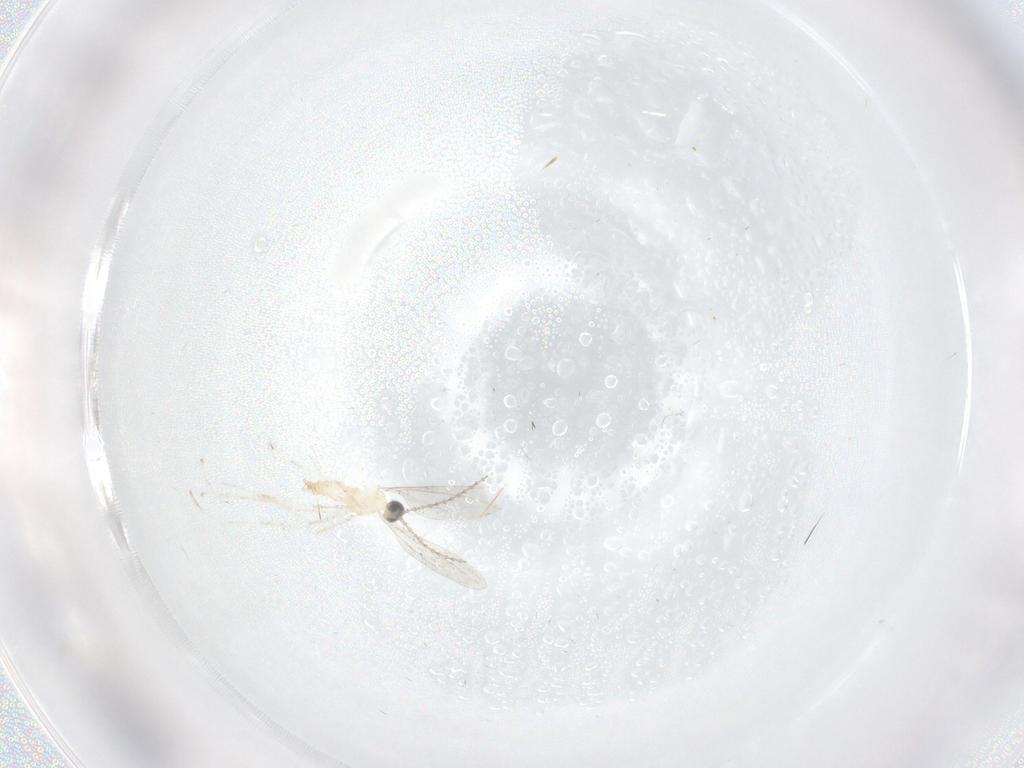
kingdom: Animalia
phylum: Arthropoda
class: Insecta
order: Diptera
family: Cecidomyiidae
